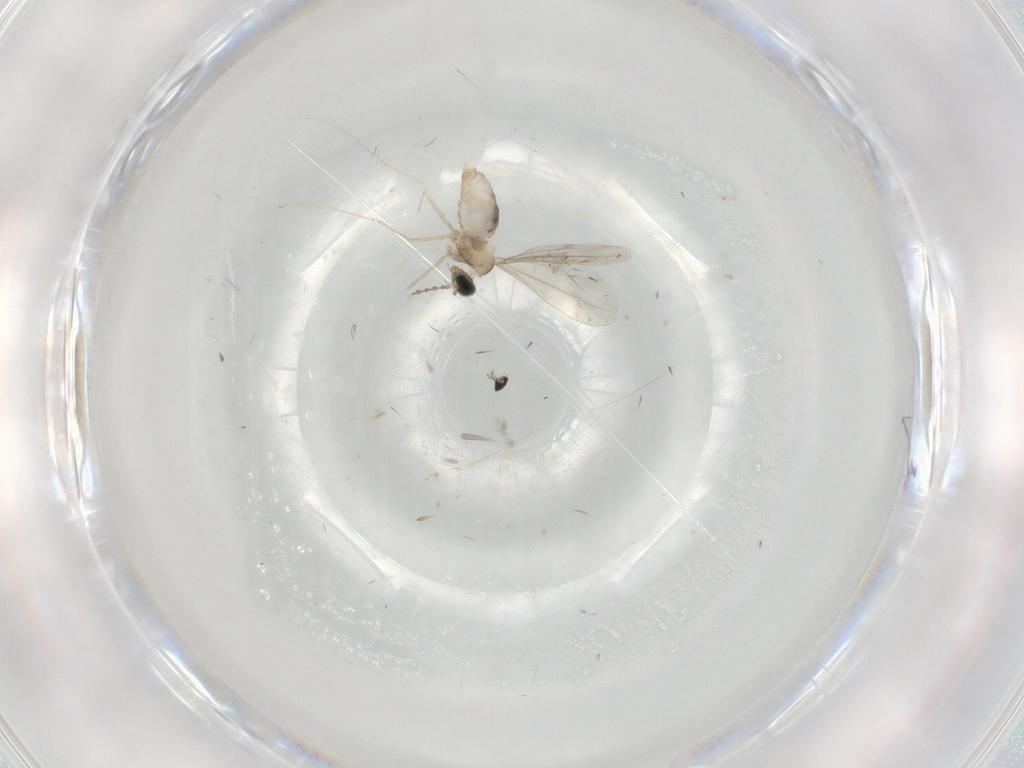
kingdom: Animalia
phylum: Arthropoda
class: Insecta
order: Diptera
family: Cecidomyiidae
